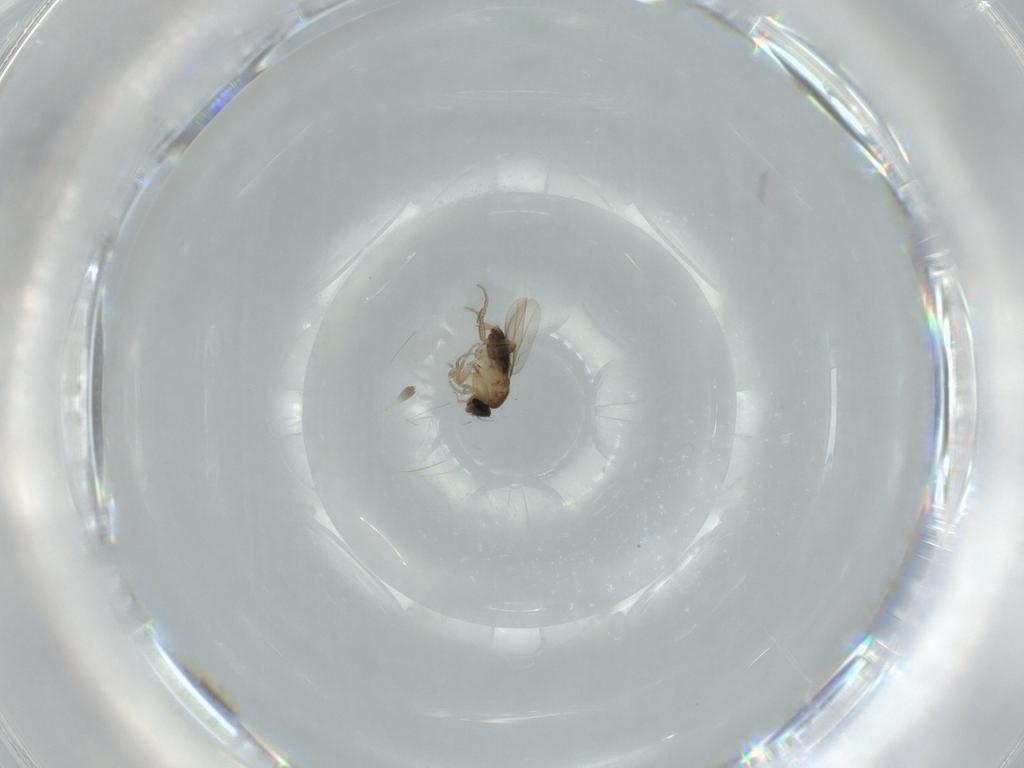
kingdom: Animalia
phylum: Arthropoda
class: Insecta
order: Diptera
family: Phoridae
